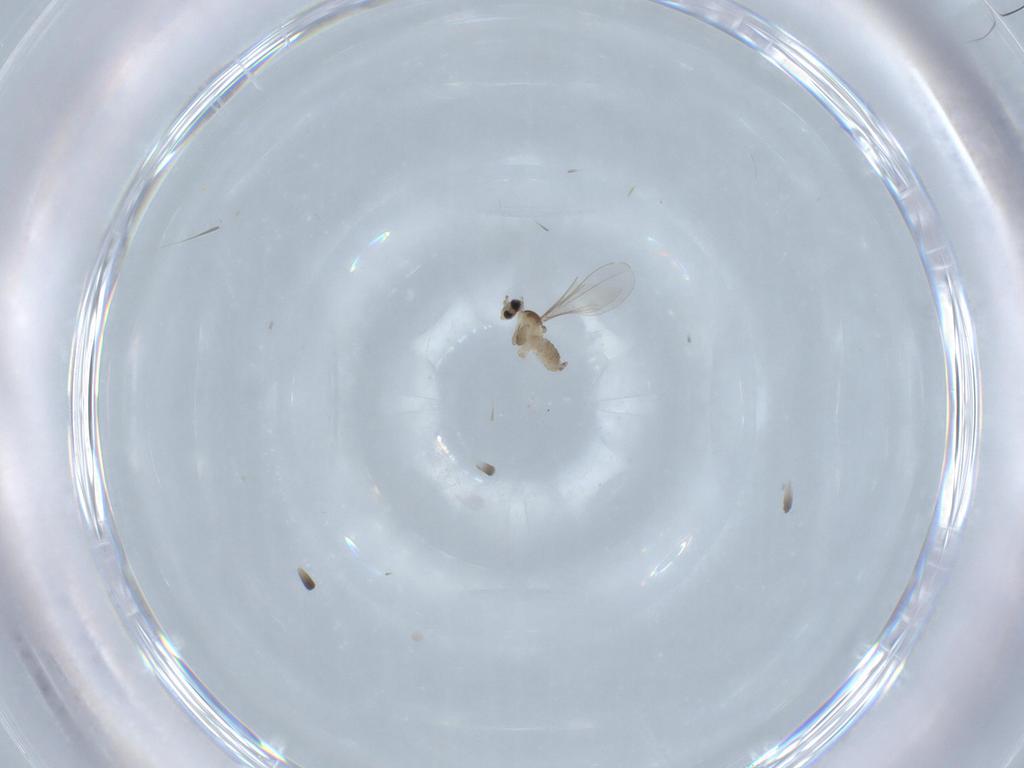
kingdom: Animalia
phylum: Arthropoda
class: Insecta
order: Diptera
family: Cecidomyiidae
